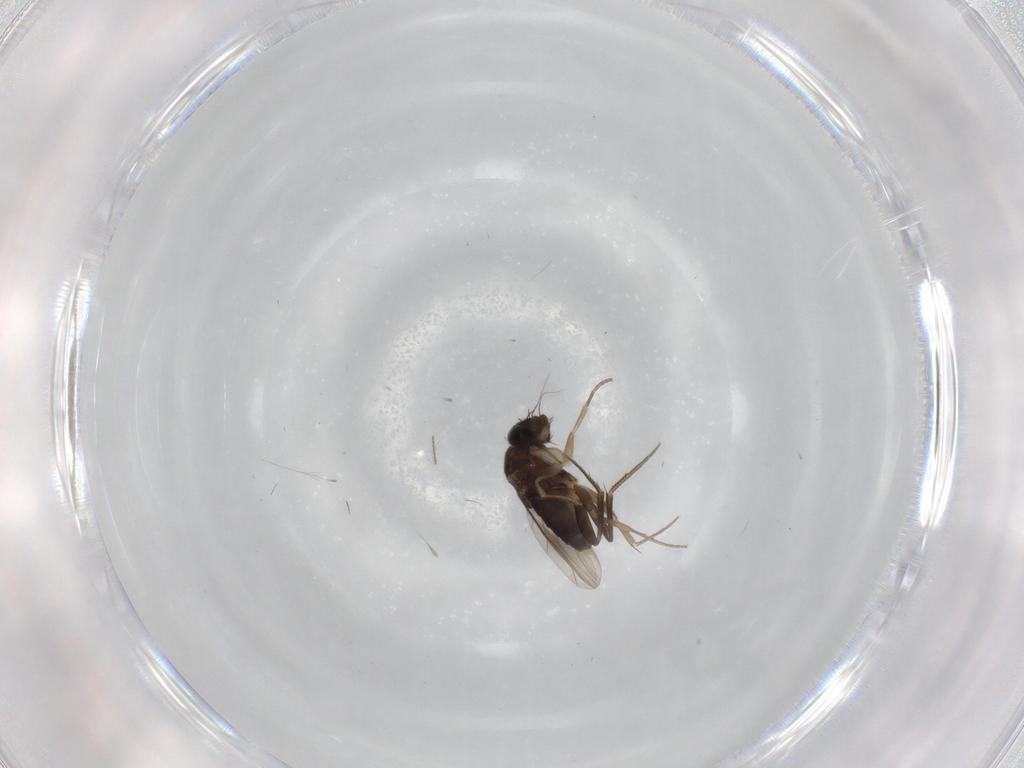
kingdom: Animalia
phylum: Arthropoda
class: Insecta
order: Diptera
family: Phoridae
